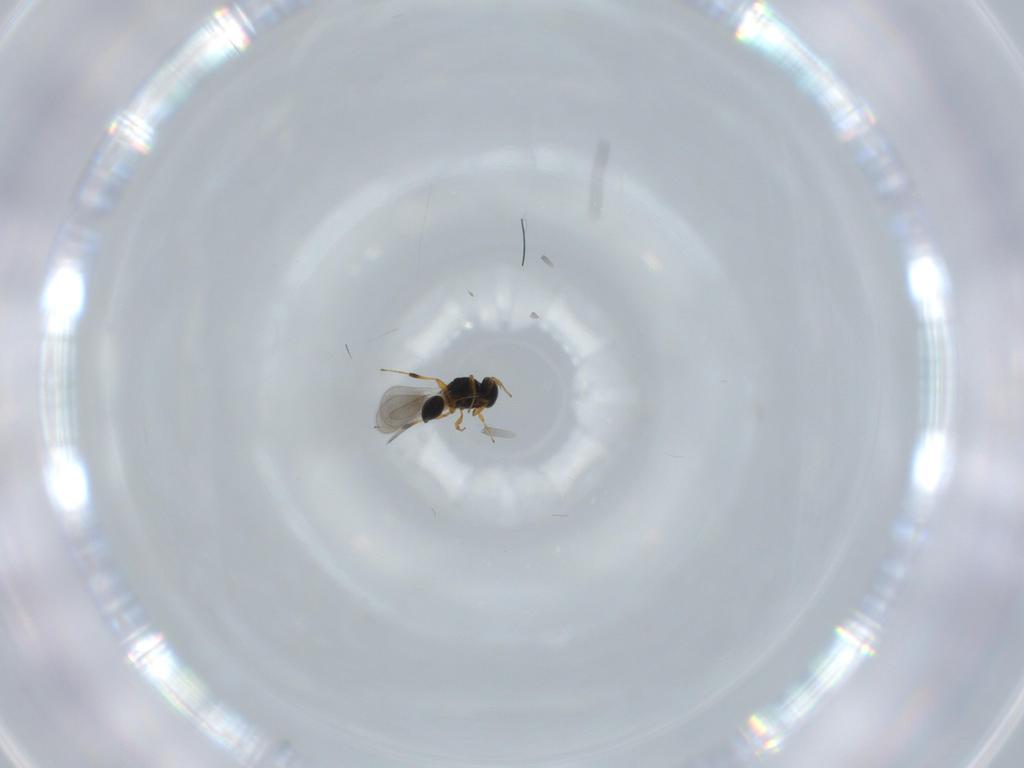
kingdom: Animalia
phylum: Arthropoda
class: Insecta
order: Hymenoptera
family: Platygastridae
